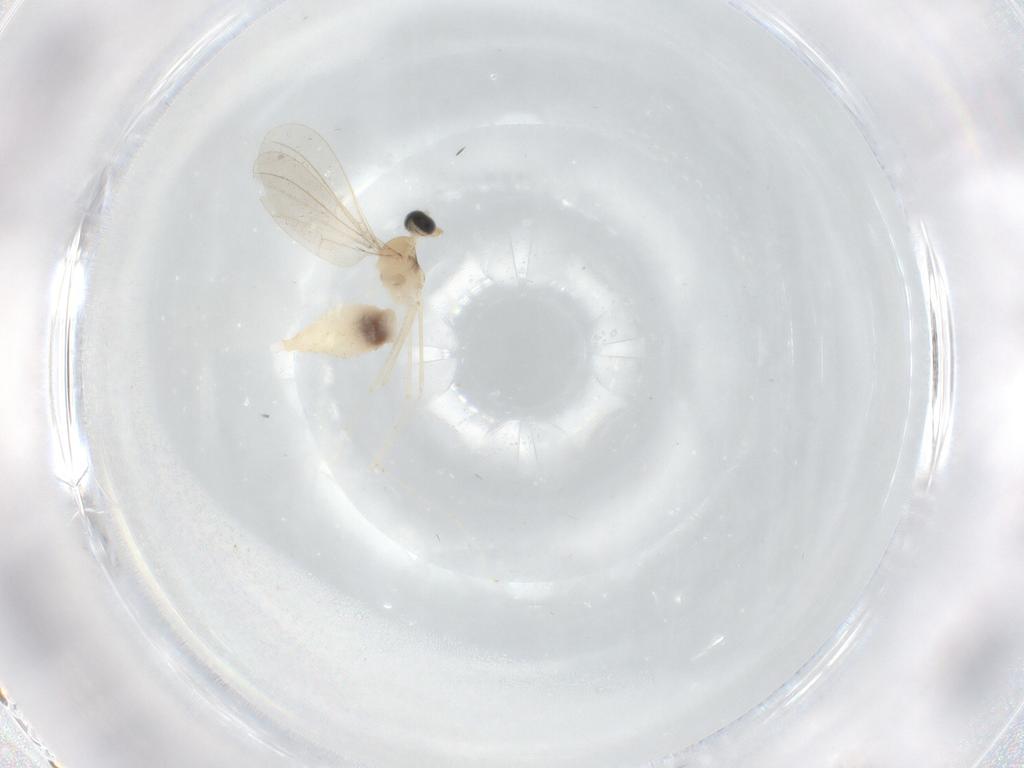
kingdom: Animalia
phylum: Arthropoda
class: Insecta
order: Diptera
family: Cecidomyiidae
